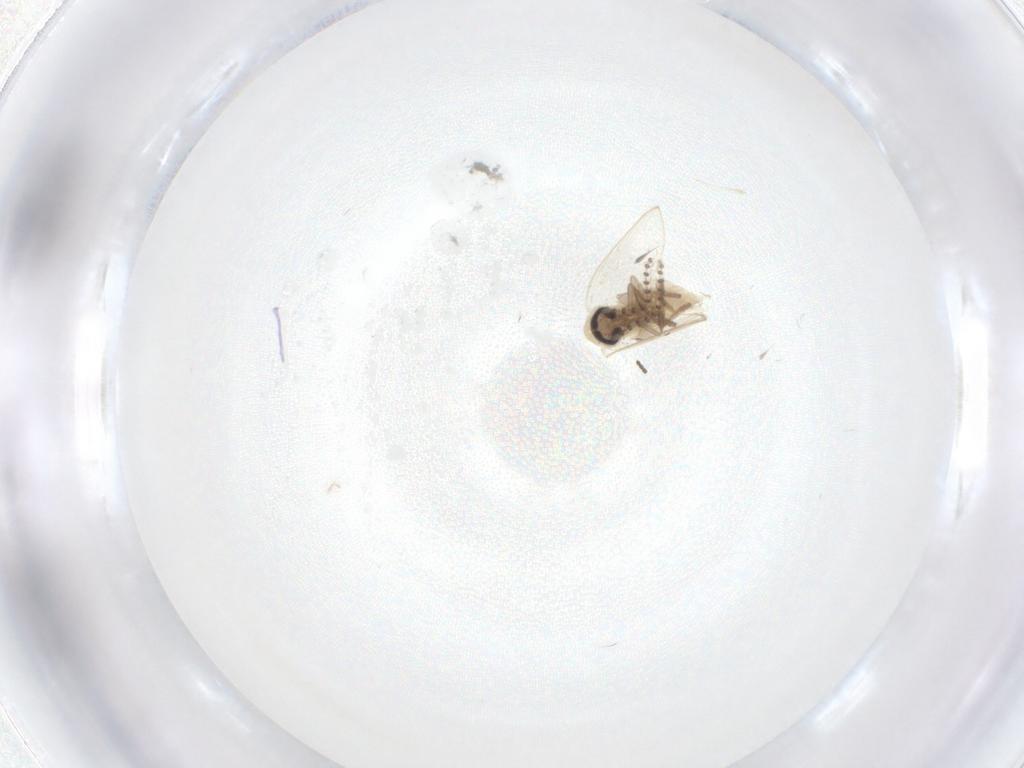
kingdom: Animalia
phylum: Arthropoda
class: Insecta
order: Diptera
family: Psychodidae
